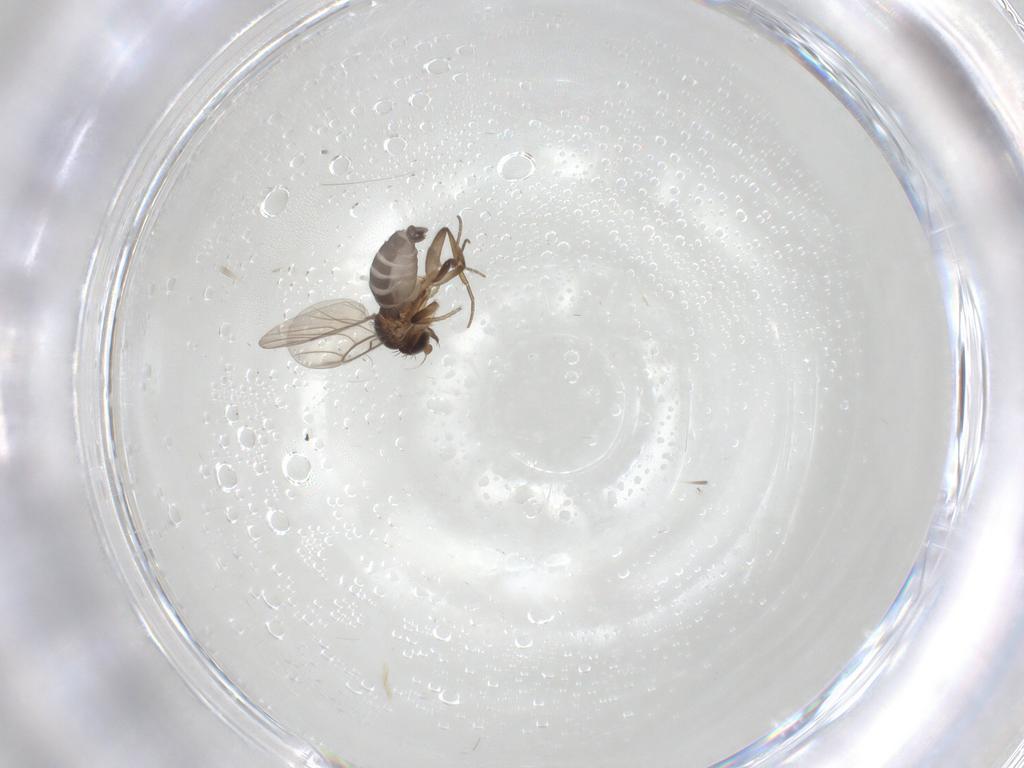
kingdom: Animalia
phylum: Arthropoda
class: Insecta
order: Diptera
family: Phoridae
